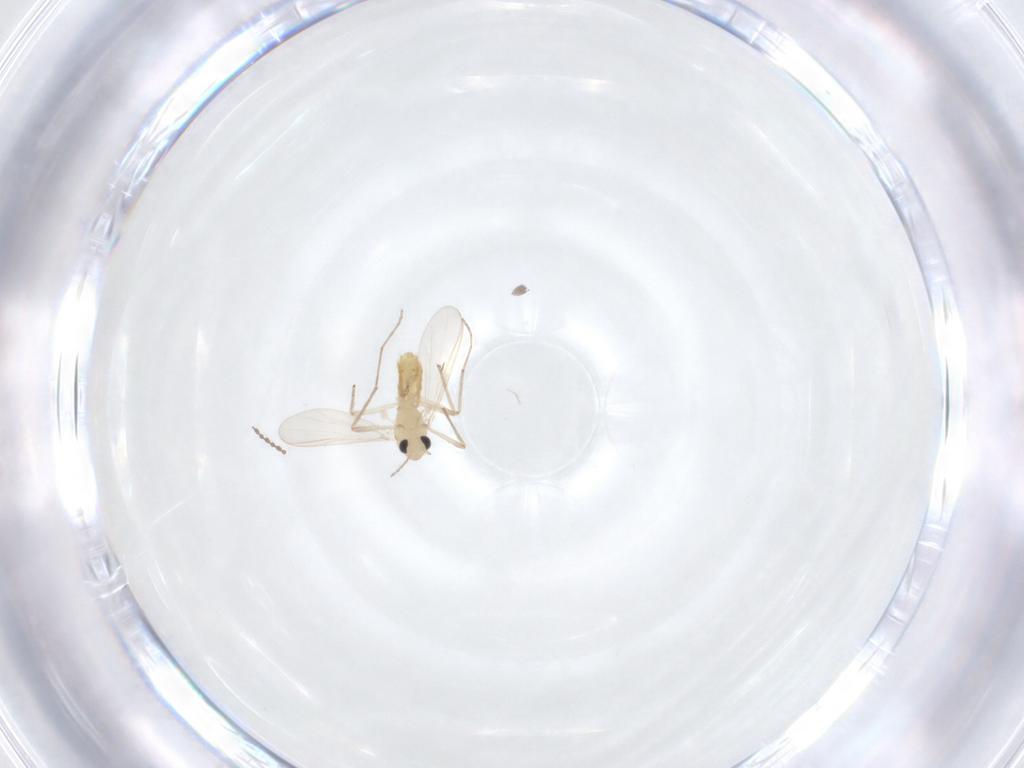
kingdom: Animalia
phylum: Arthropoda
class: Insecta
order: Diptera
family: Cecidomyiidae
